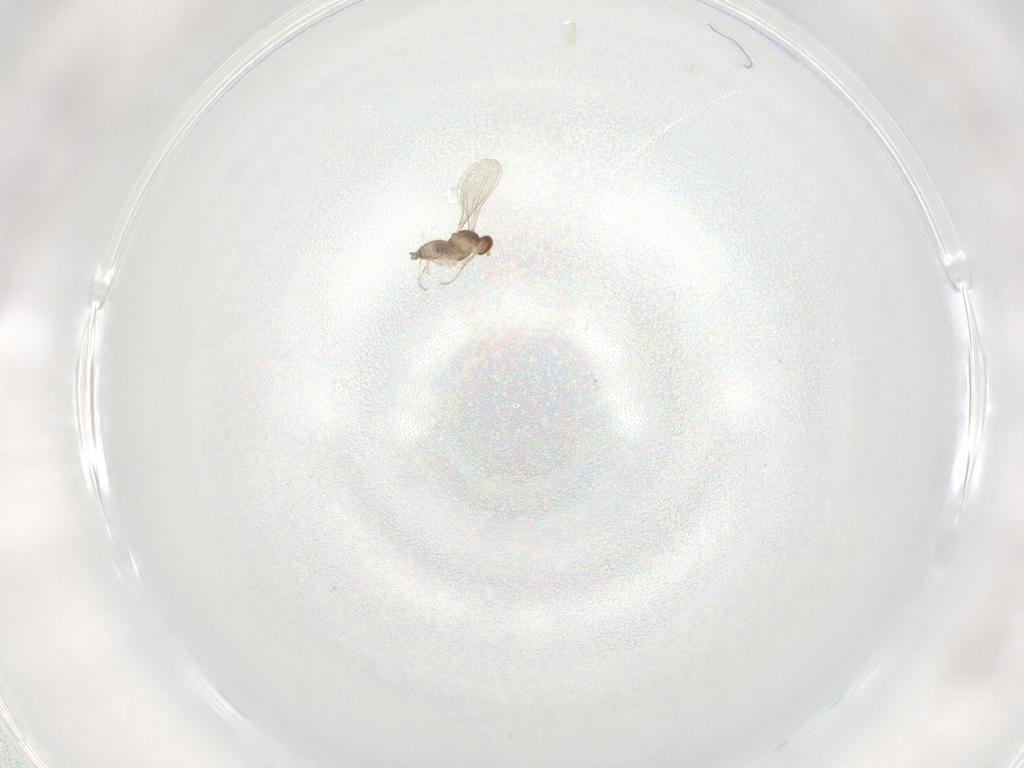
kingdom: Animalia
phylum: Arthropoda
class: Insecta
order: Diptera
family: Cecidomyiidae
